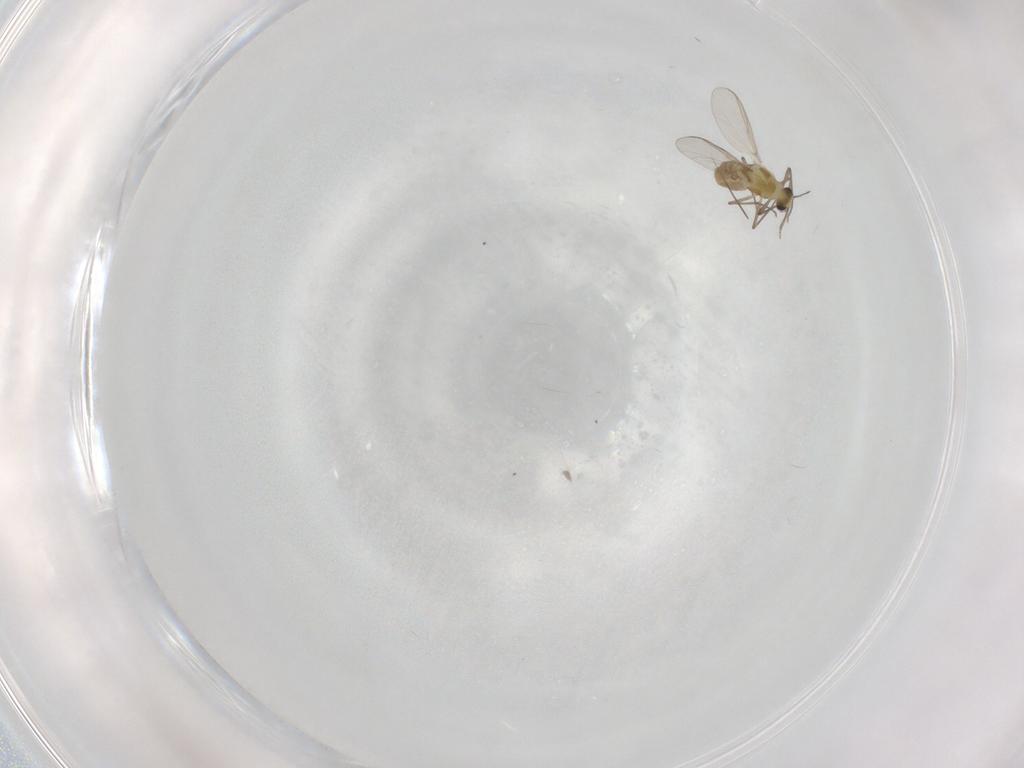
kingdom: Animalia
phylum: Arthropoda
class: Insecta
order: Diptera
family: Chironomidae
